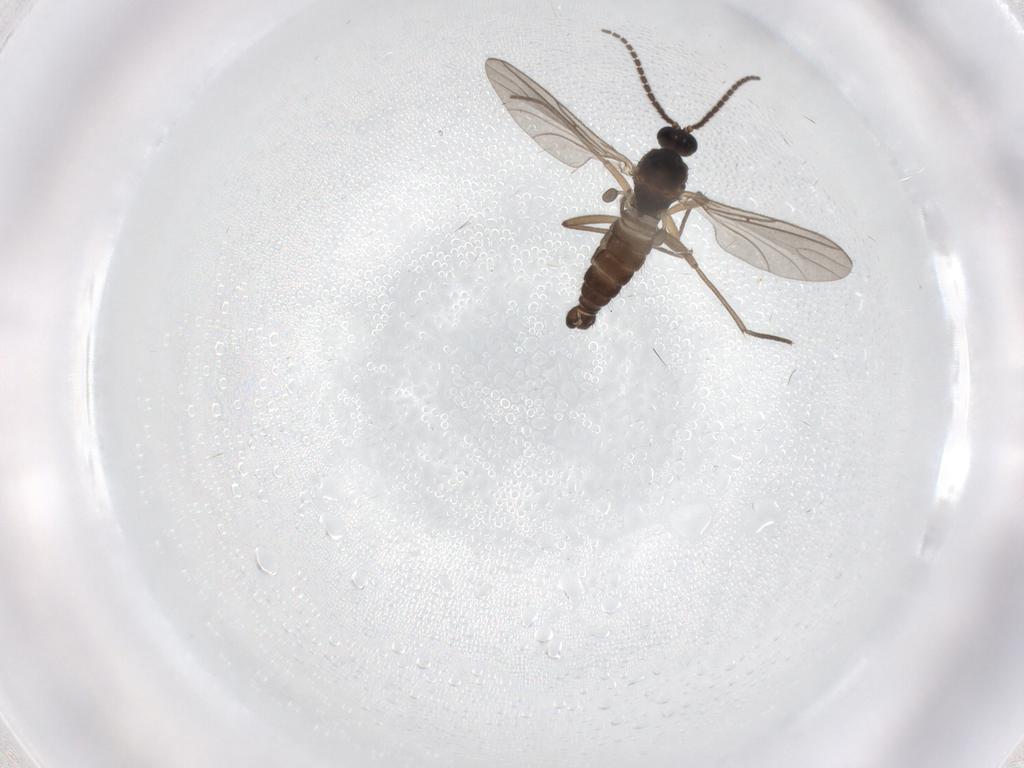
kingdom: Animalia
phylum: Arthropoda
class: Insecta
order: Diptera
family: Sciaridae
